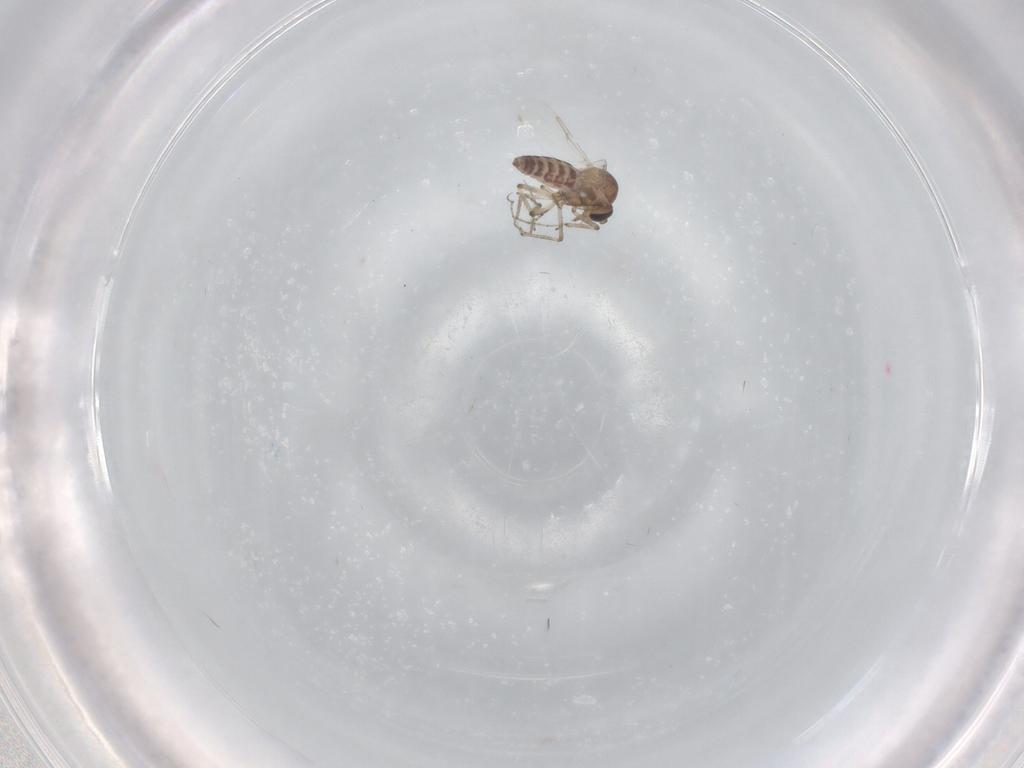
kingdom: Animalia
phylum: Arthropoda
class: Insecta
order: Diptera
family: Ceratopogonidae
